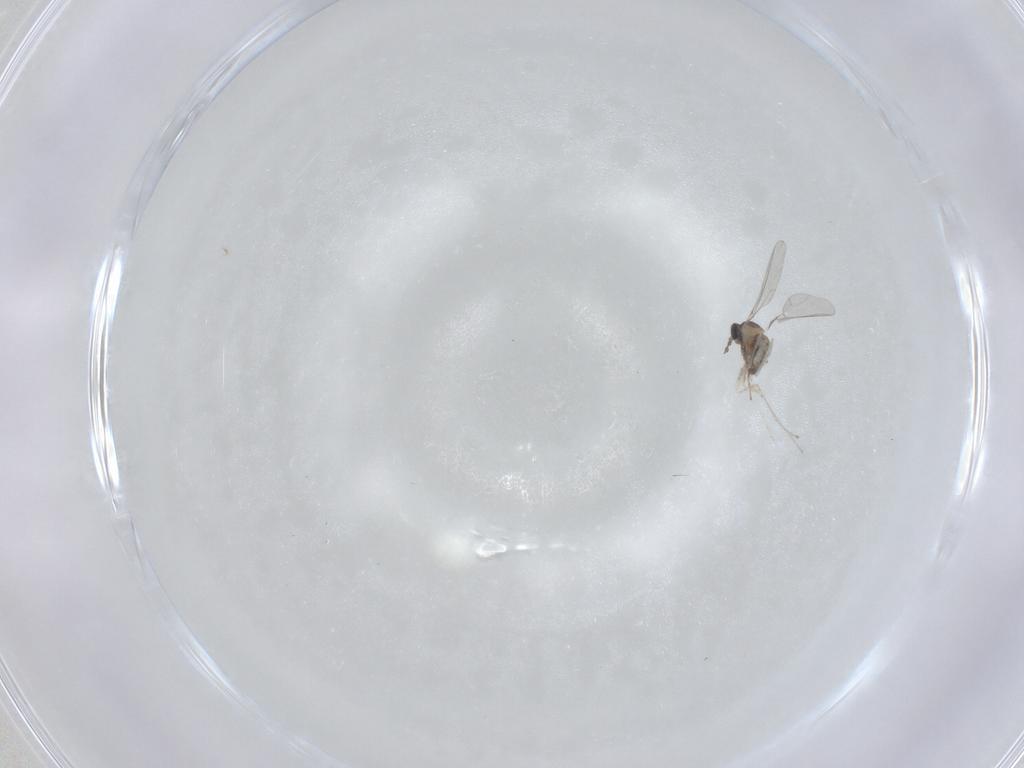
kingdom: Animalia
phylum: Arthropoda
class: Insecta
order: Diptera
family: Cecidomyiidae
